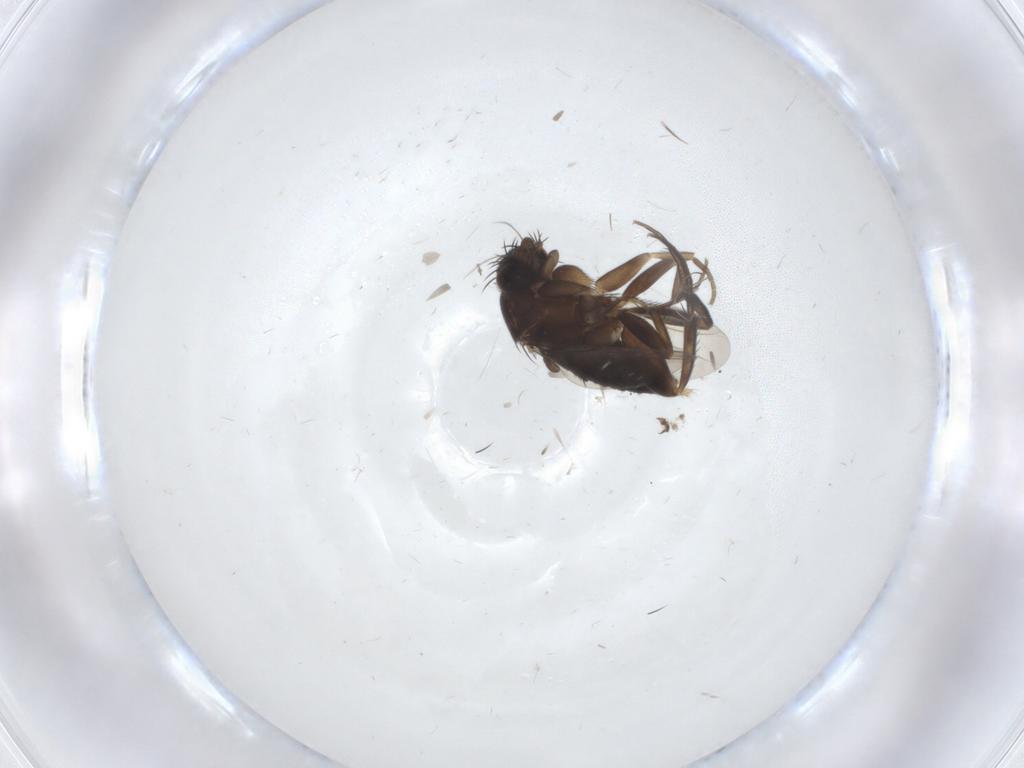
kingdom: Animalia
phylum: Arthropoda
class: Insecta
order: Diptera
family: Phoridae
